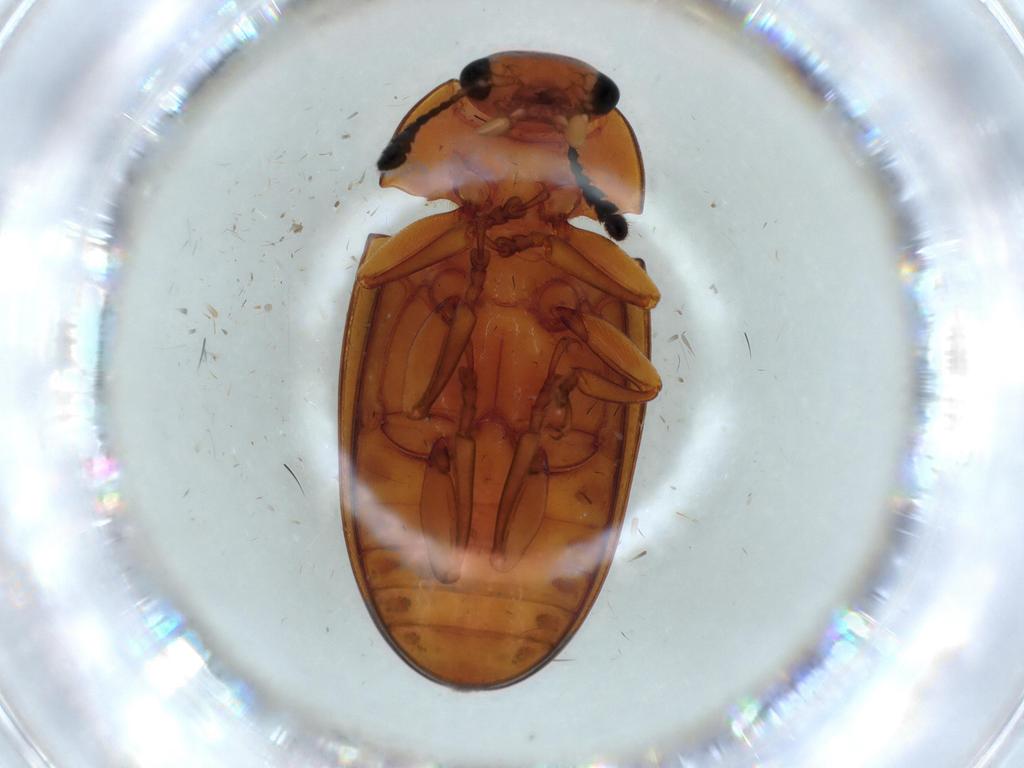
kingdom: Animalia
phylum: Arthropoda
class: Insecta
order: Coleoptera
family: Erotylidae
